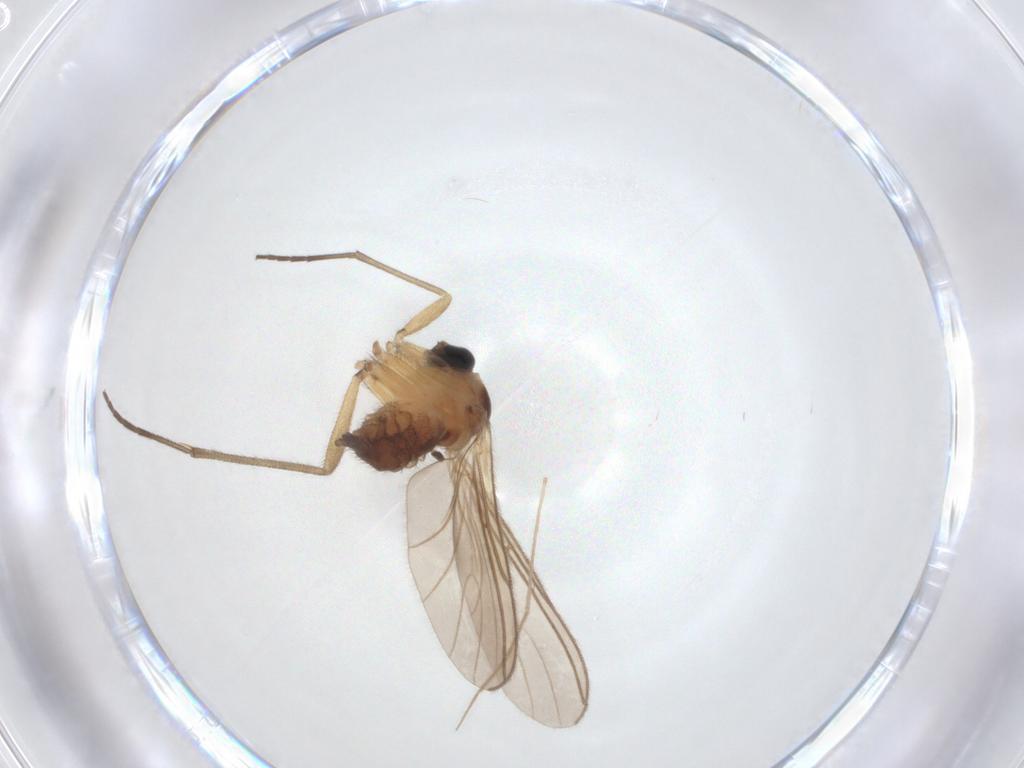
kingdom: Animalia
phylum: Arthropoda
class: Insecta
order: Diptera
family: Sciaridae
